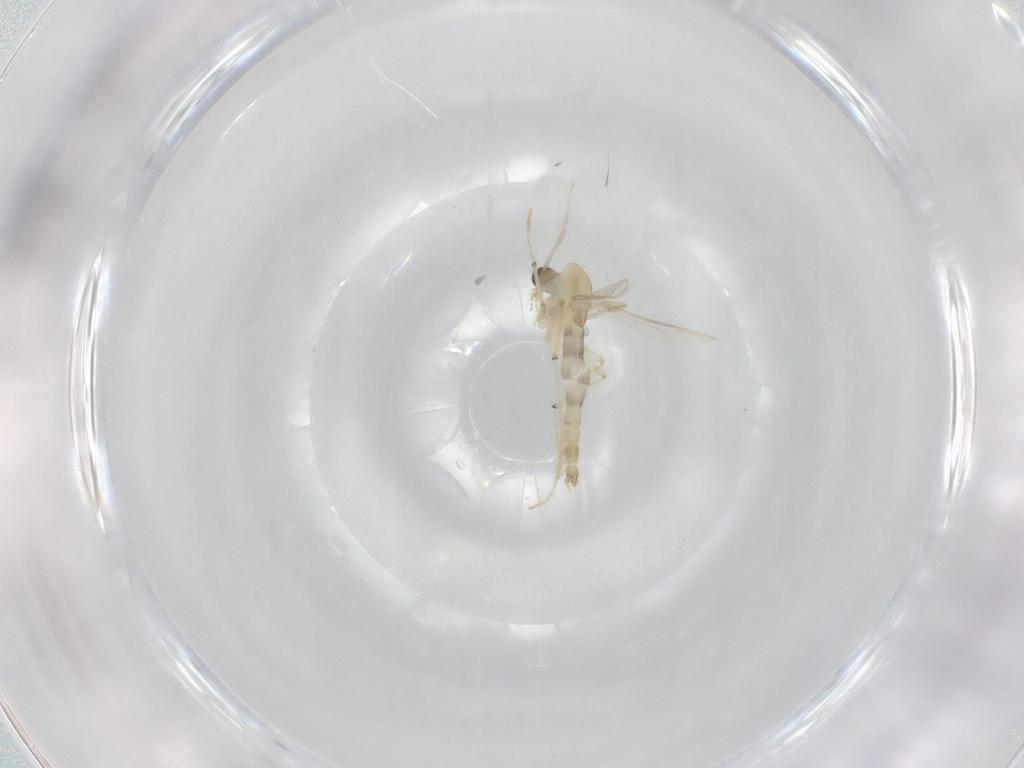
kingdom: Animalia
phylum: Arthropoda
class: Insecta
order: Diptera
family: Chironomidae
